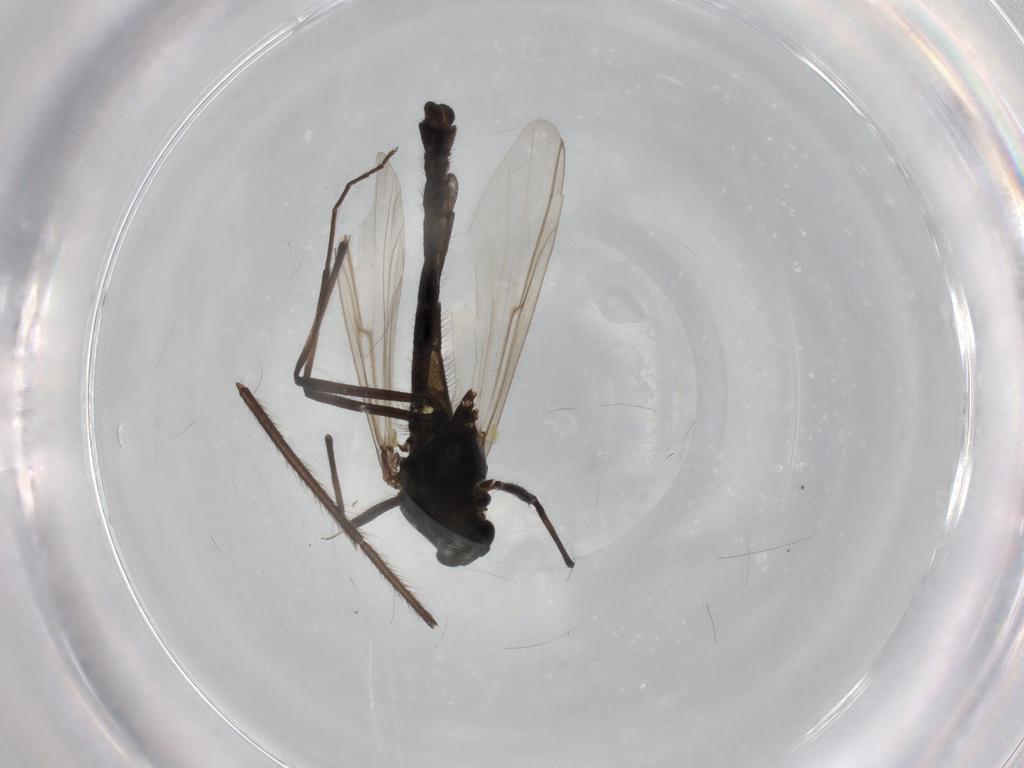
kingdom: Animalia
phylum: Arthropoda
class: Insecta
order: Diptera
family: Chironomidae
